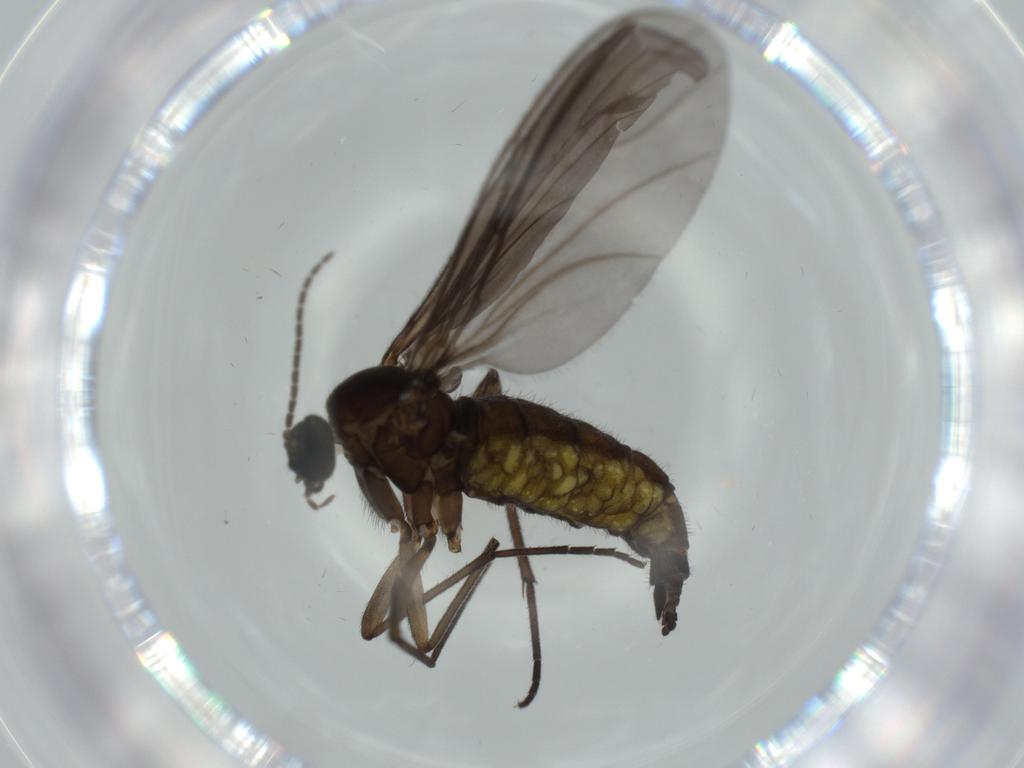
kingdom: Animalia
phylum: Arthropoda
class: Insecta
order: Diptera
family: Sciaridae
